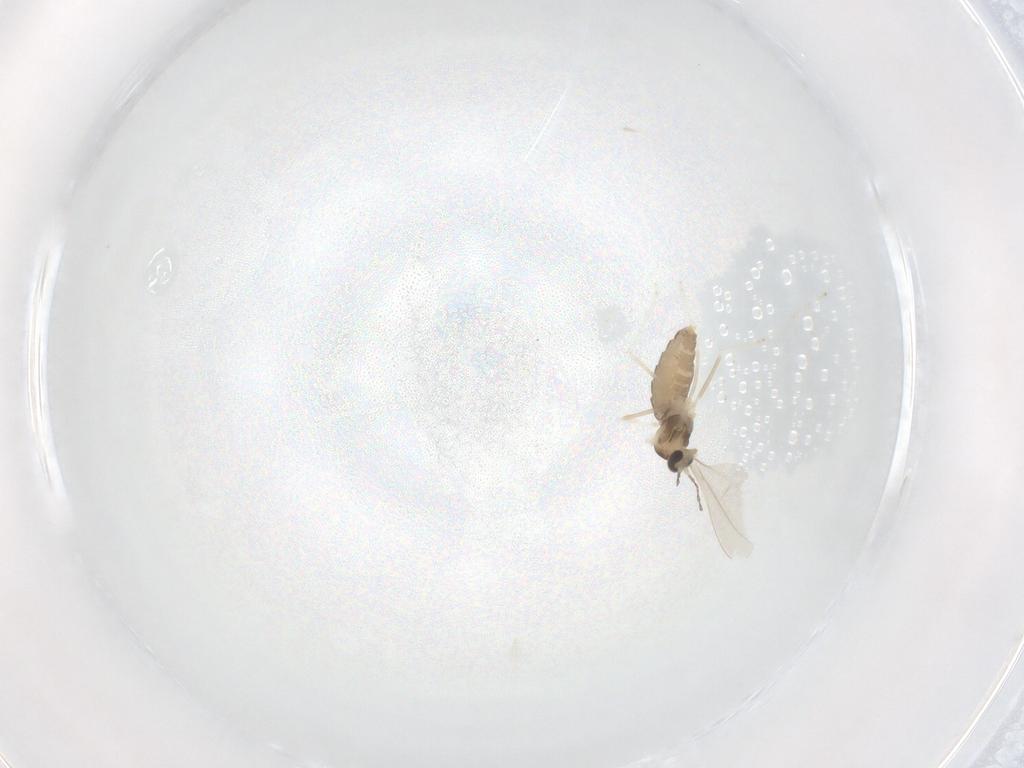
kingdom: Animalia
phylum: Arthropoda
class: Insecta
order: Diptera
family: Cecidomyiidae
